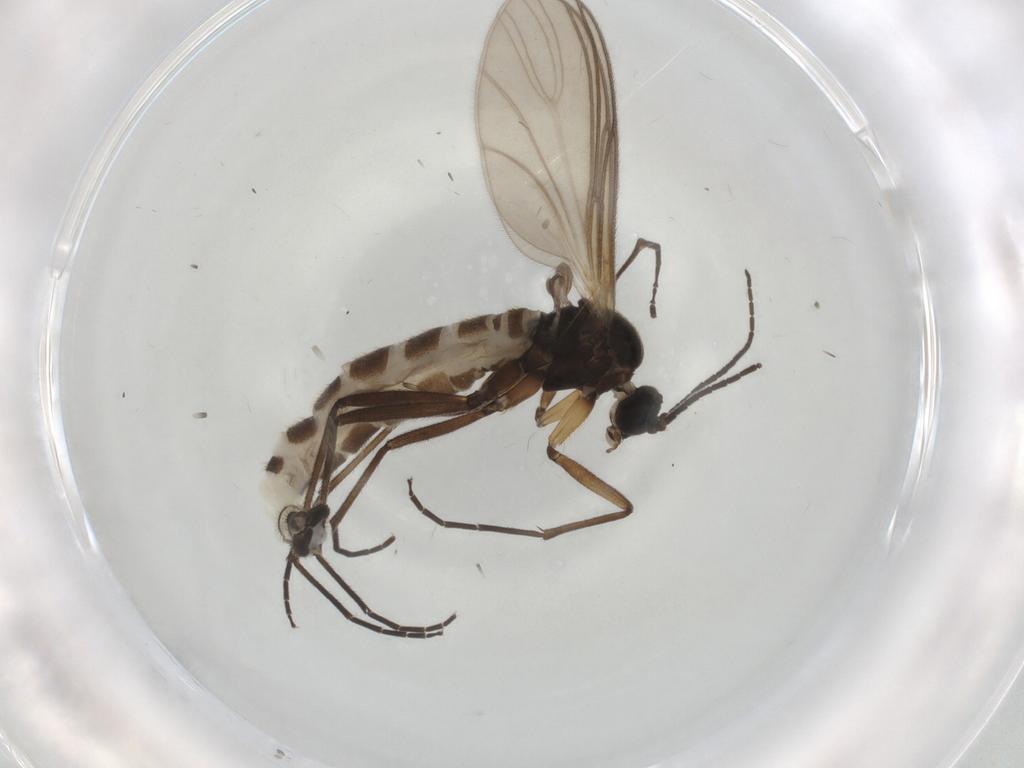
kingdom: Animalia
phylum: Arthropoda
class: Insecta
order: Diptera
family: Sciaridae
